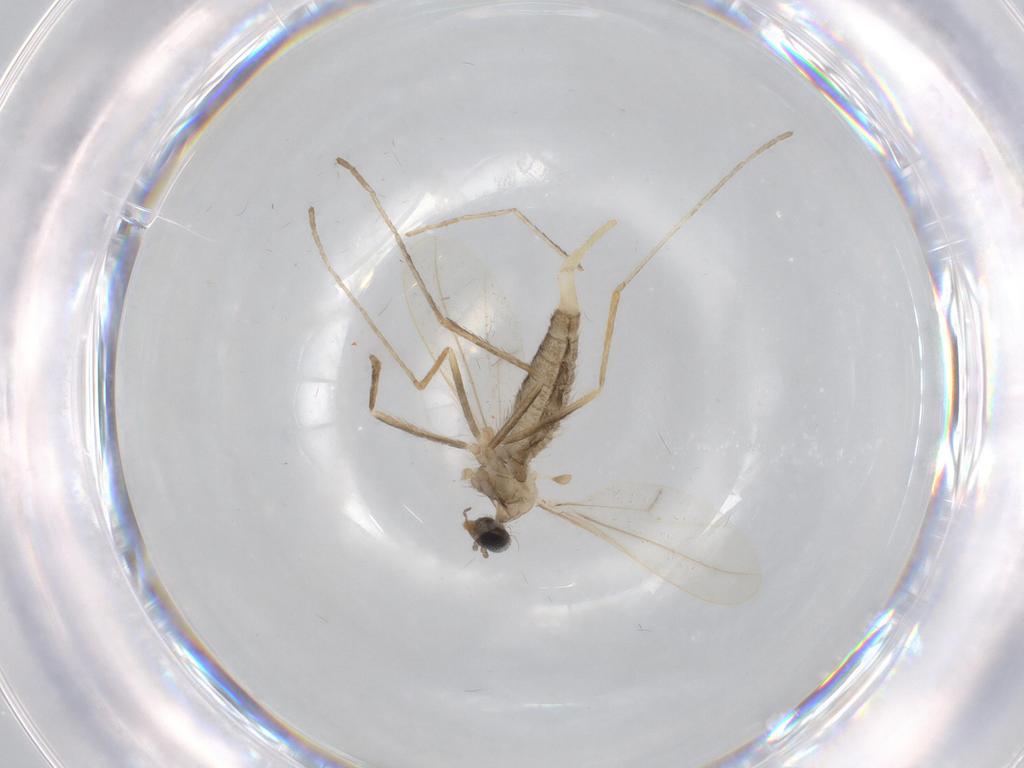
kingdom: Animalia
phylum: Arthropoda
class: Insecta
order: Diptera
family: Cecidomyiidae
